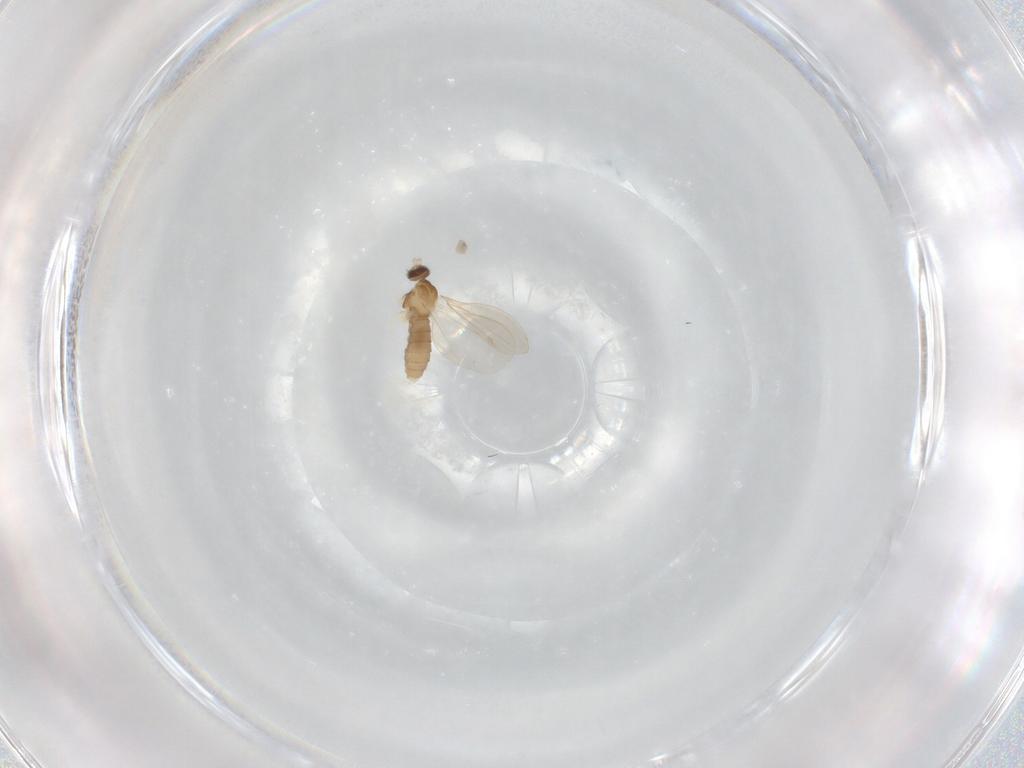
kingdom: Animalia
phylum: Arthropoda
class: Insecta
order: Diptera
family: Cecidomyiidae
